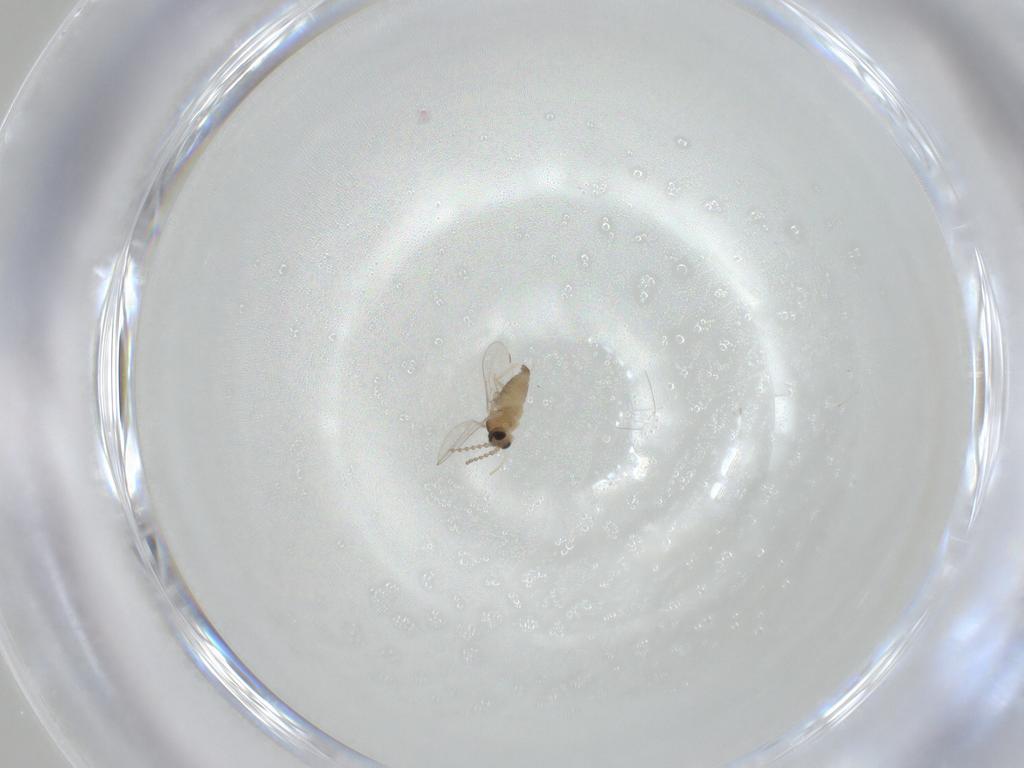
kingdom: Animalia
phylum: Arthropoda
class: Insecta
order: Diptera
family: Cecidomyiidae
